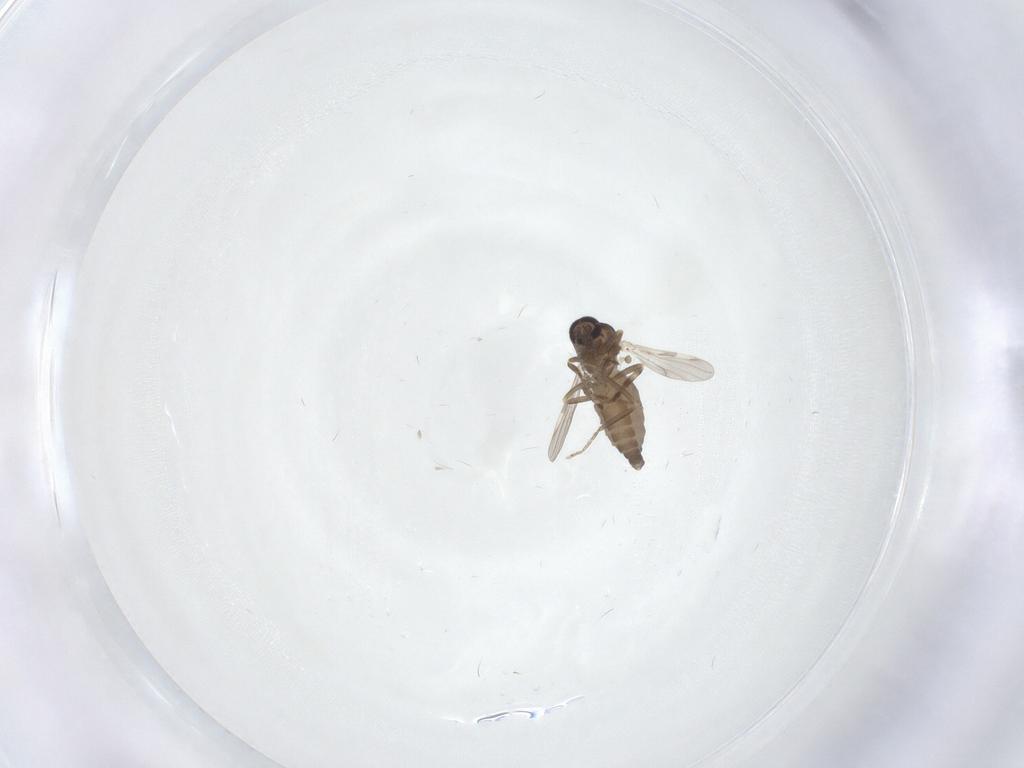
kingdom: Animalia
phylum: Arthropoda
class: Insecta
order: Diptera
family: Ceratopogonidae
